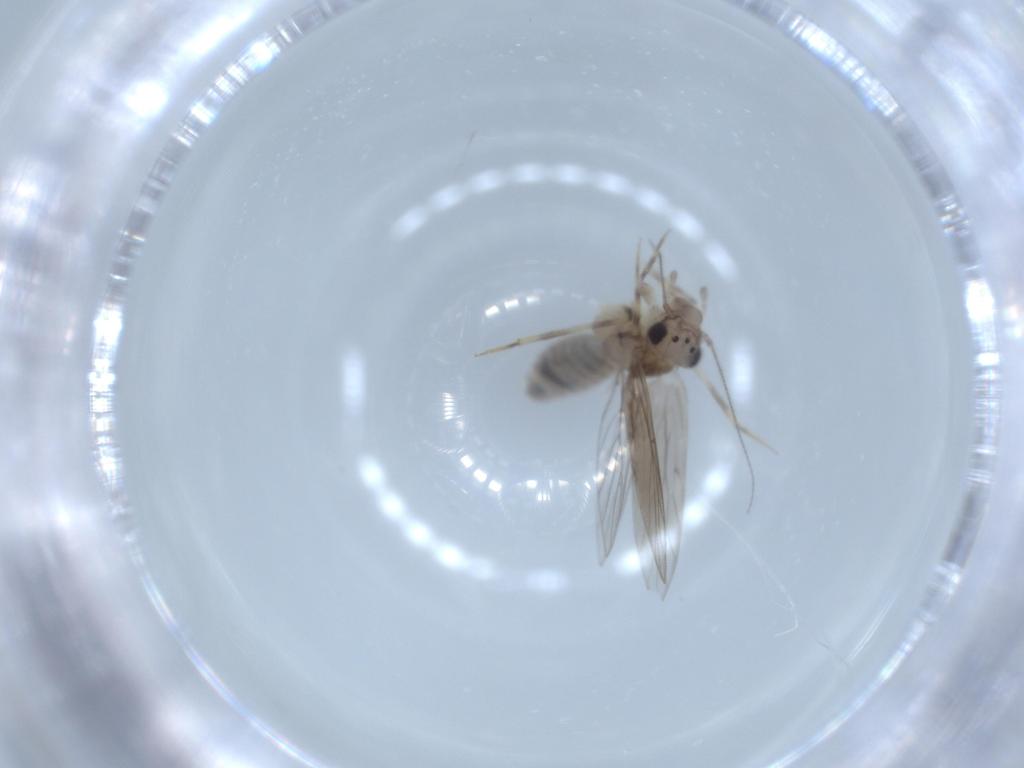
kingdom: Animalia
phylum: Arthropoda
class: Insecta
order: Psocodea
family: Lepidopsocidae
